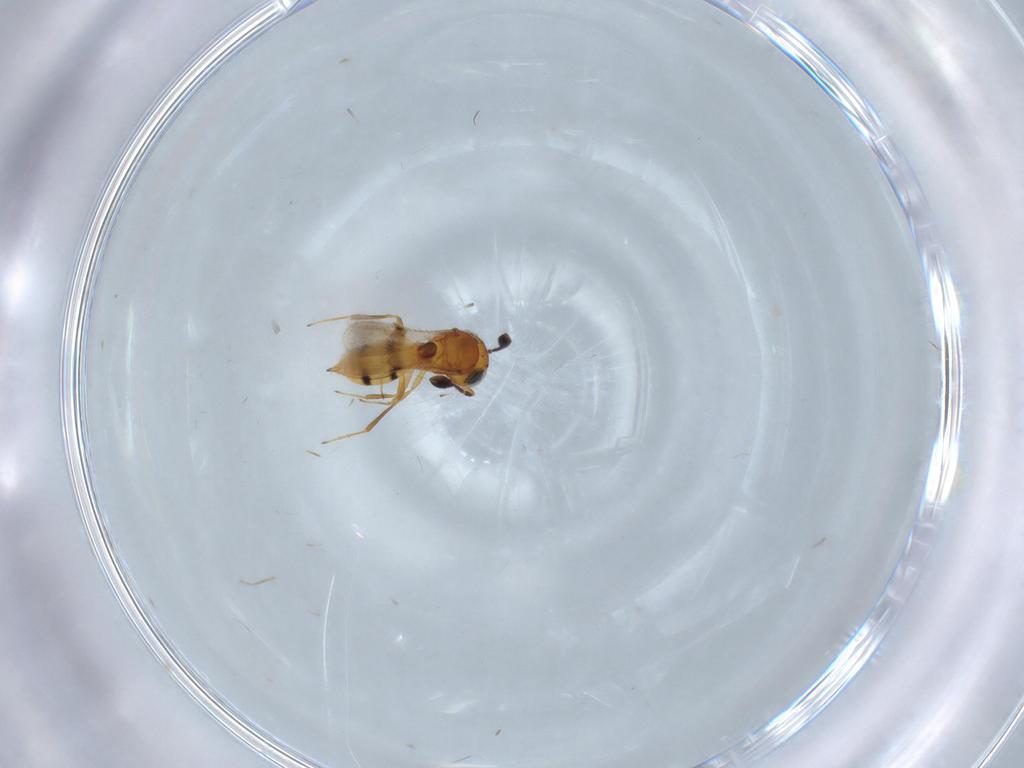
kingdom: Animalia
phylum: Arthropoda
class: Insecta
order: Hymenoptera
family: Scelionidae
